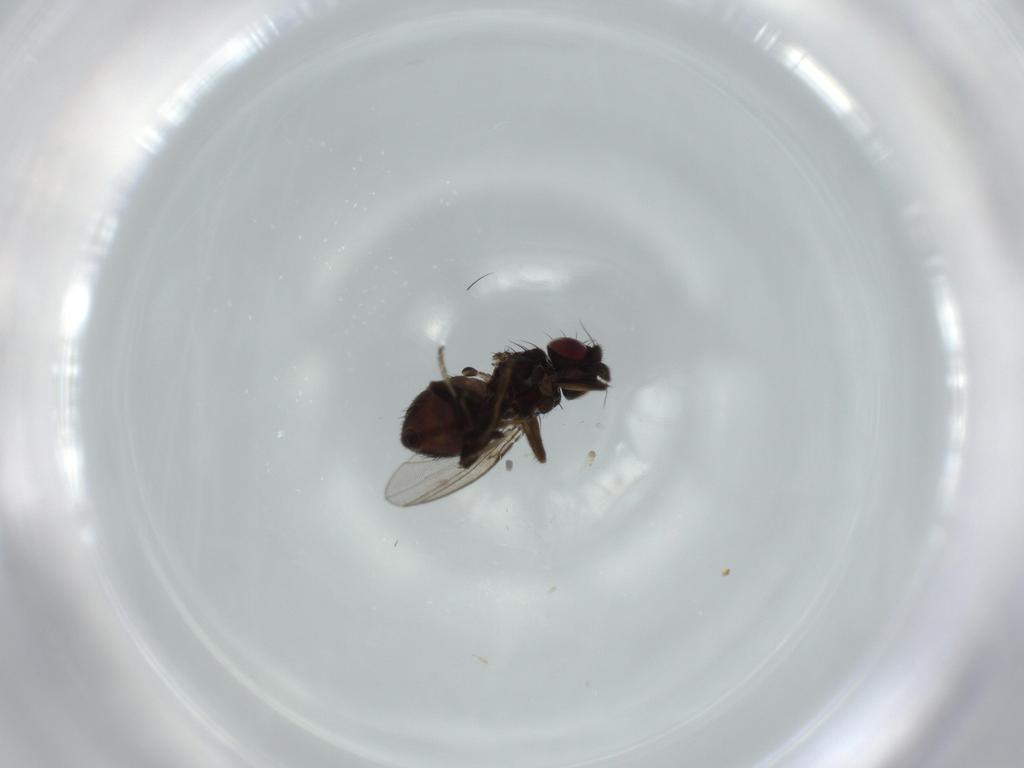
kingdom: Animalia
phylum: Arthropoda
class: Insecta
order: Diptera
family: Milichiidae
